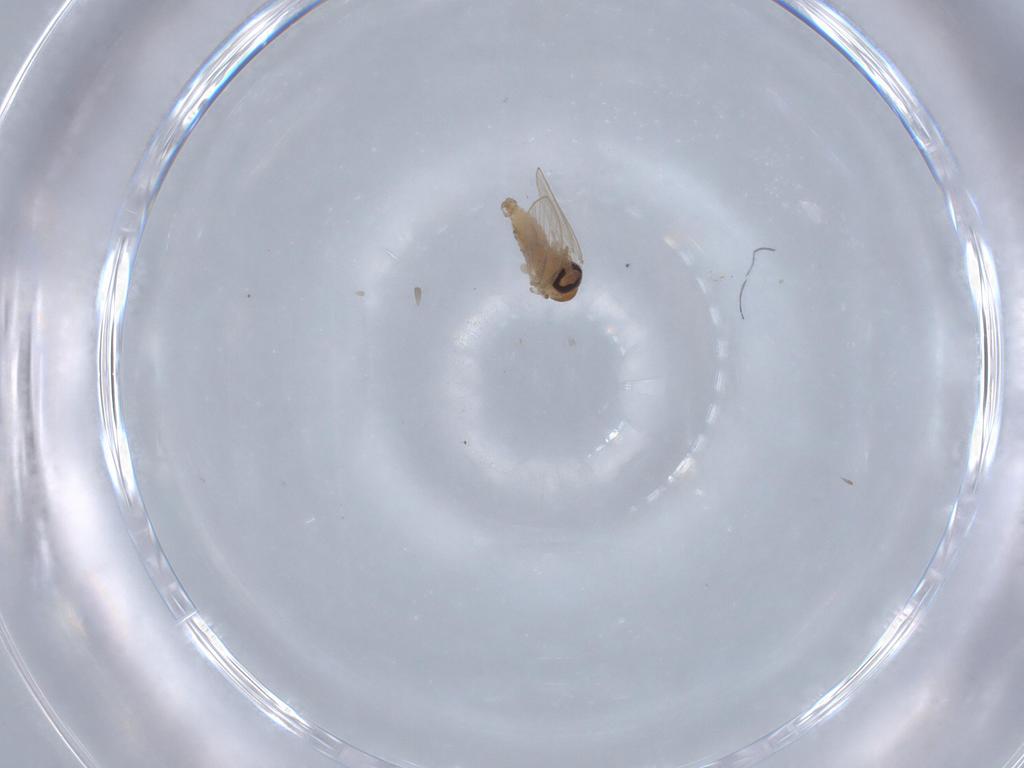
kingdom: Animalia
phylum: Arthropoda
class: Insecta
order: Diptera
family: Psychodidae
